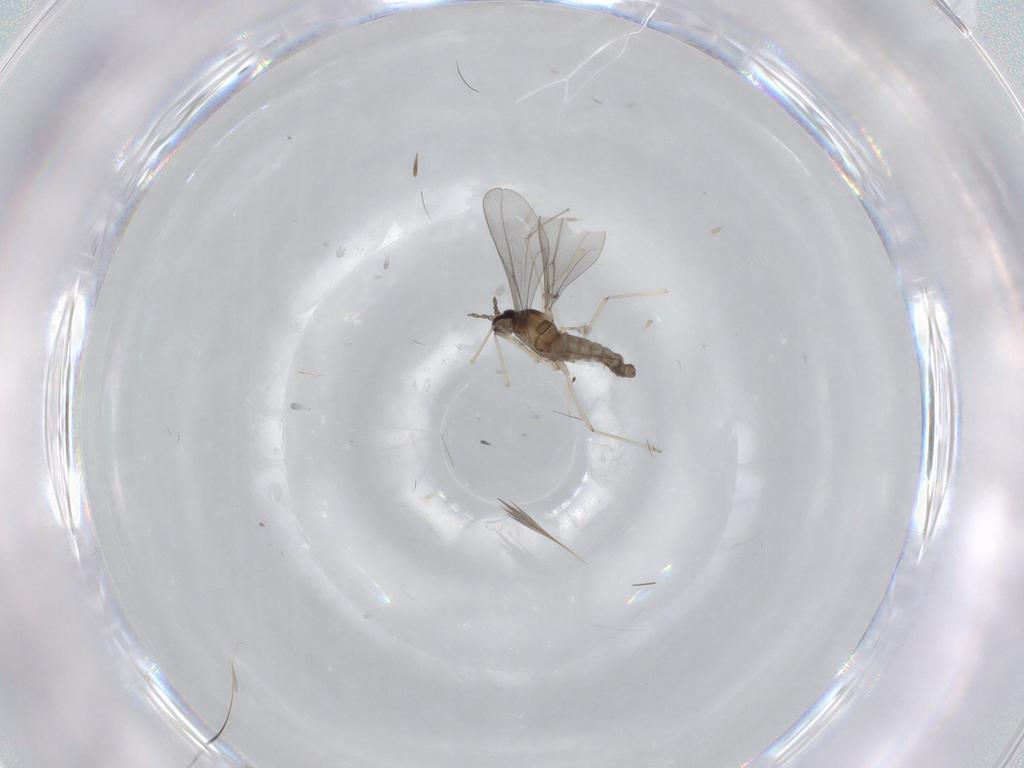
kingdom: Animalia
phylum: Arthropoda
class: Insecta
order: Diptera
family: Cecidomyiidae
